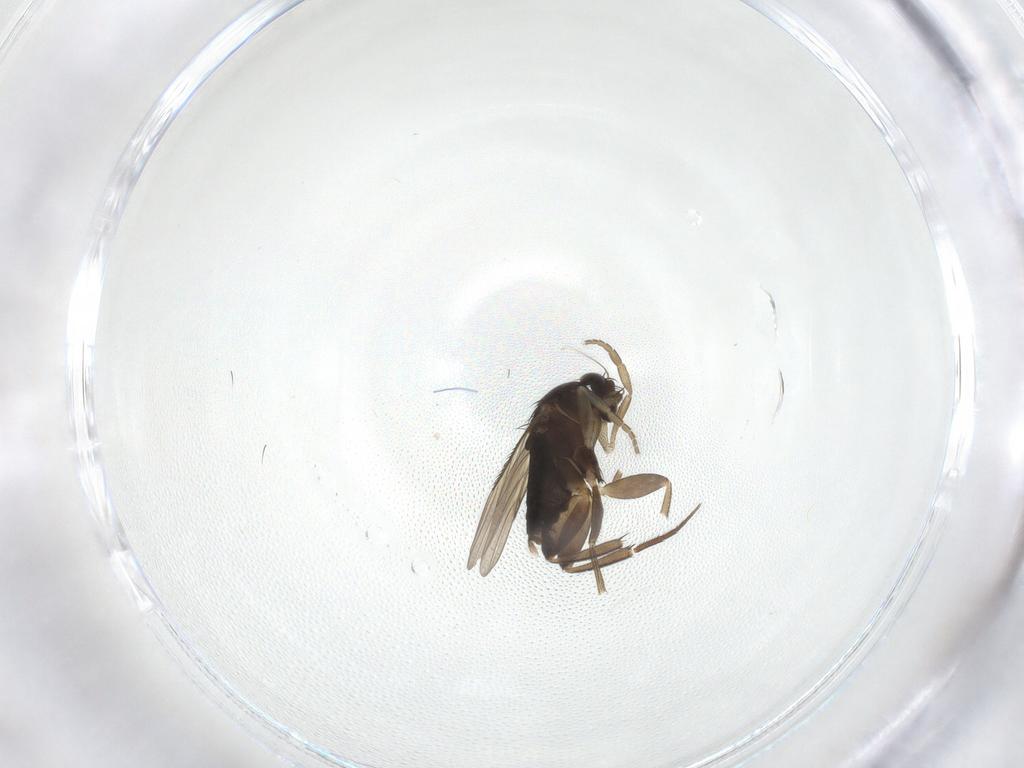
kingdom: Animalia
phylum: Arthropoda
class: Insecta
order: Diptera
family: Phoridae
